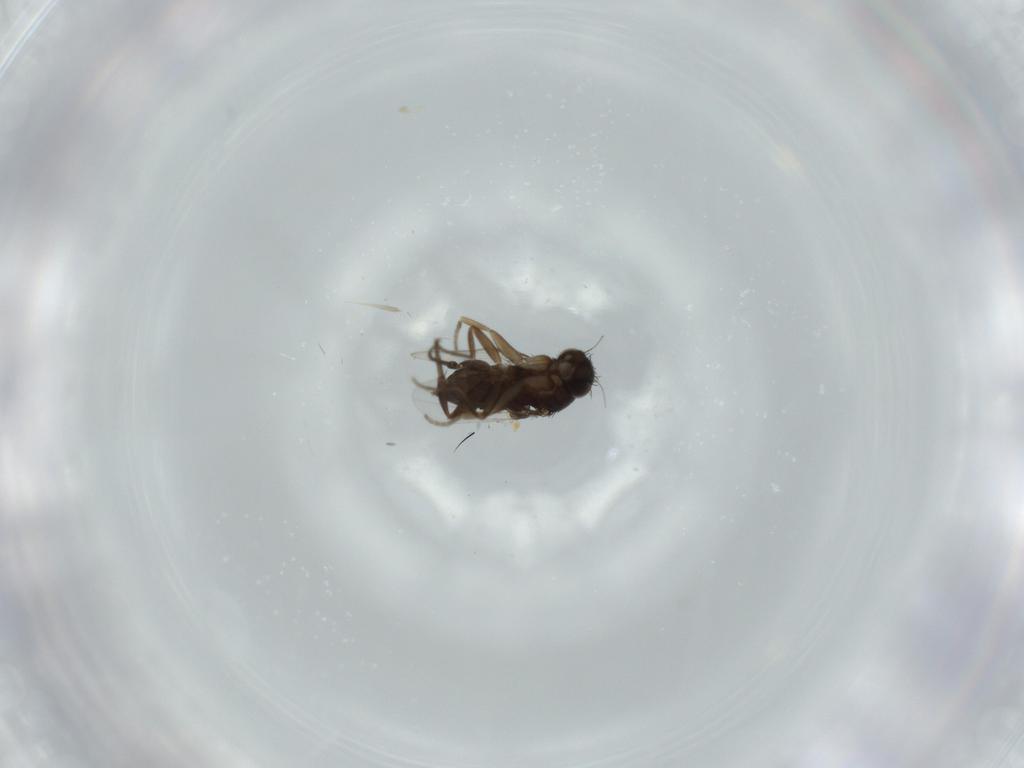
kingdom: Animalia
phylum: Arthropoda
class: Insecta
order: Diptera
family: Phoridae
